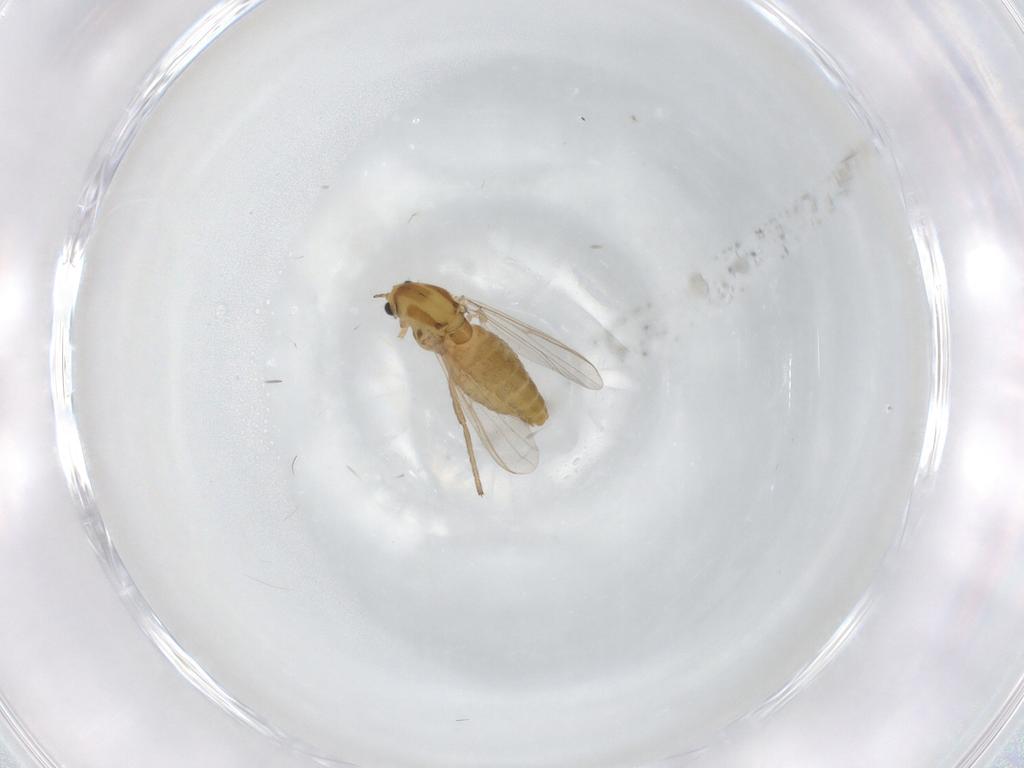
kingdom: Animalia
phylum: Arthropoda
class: Insecta
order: Diptera
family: Chironomidae
